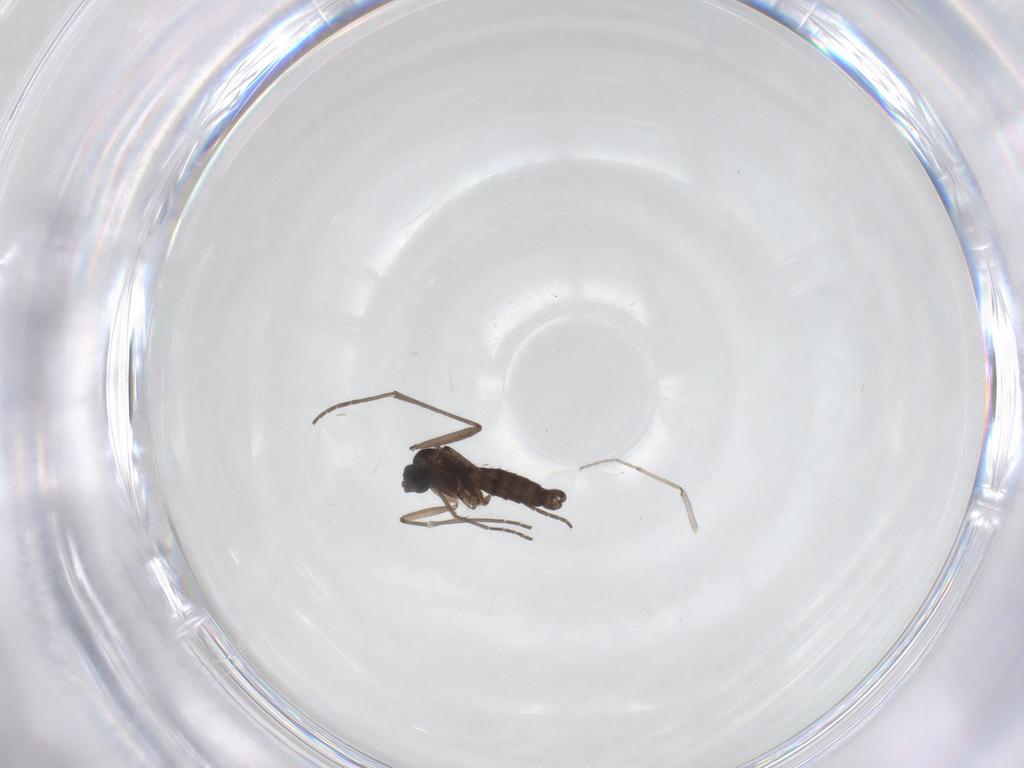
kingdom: Animalia
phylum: Arthropoda
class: Insecta
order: Diptera
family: Sciaridae
